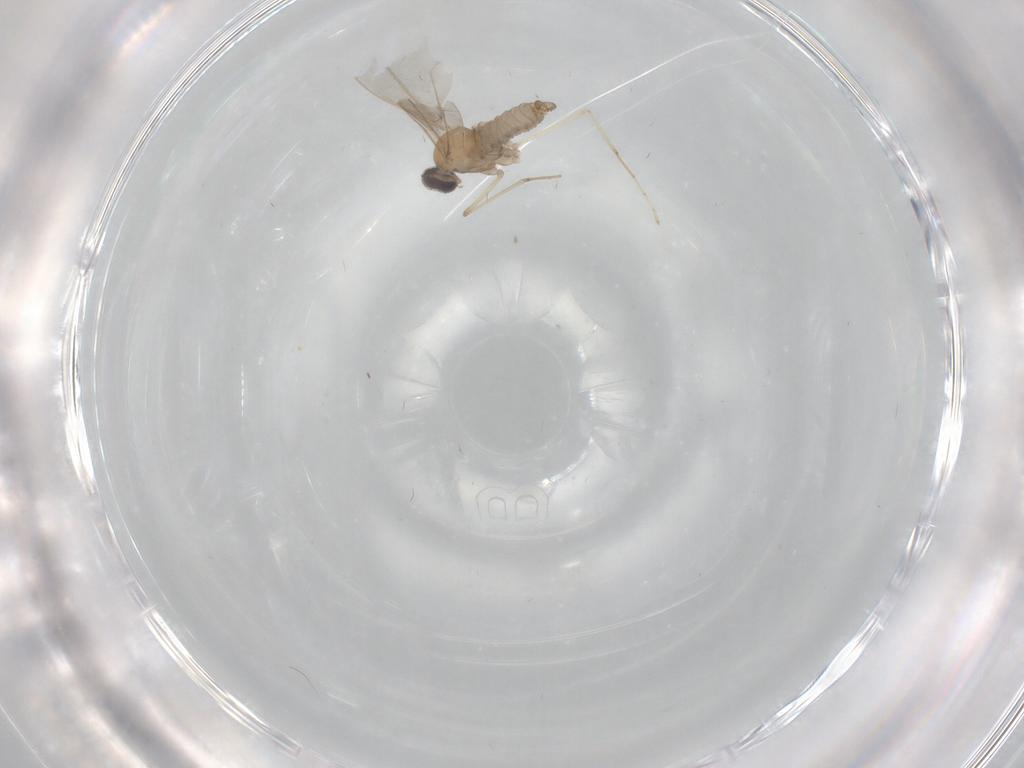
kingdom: Animalia
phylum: Arthropoda
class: Insecta
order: Diptera
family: Cecidomyiidae
